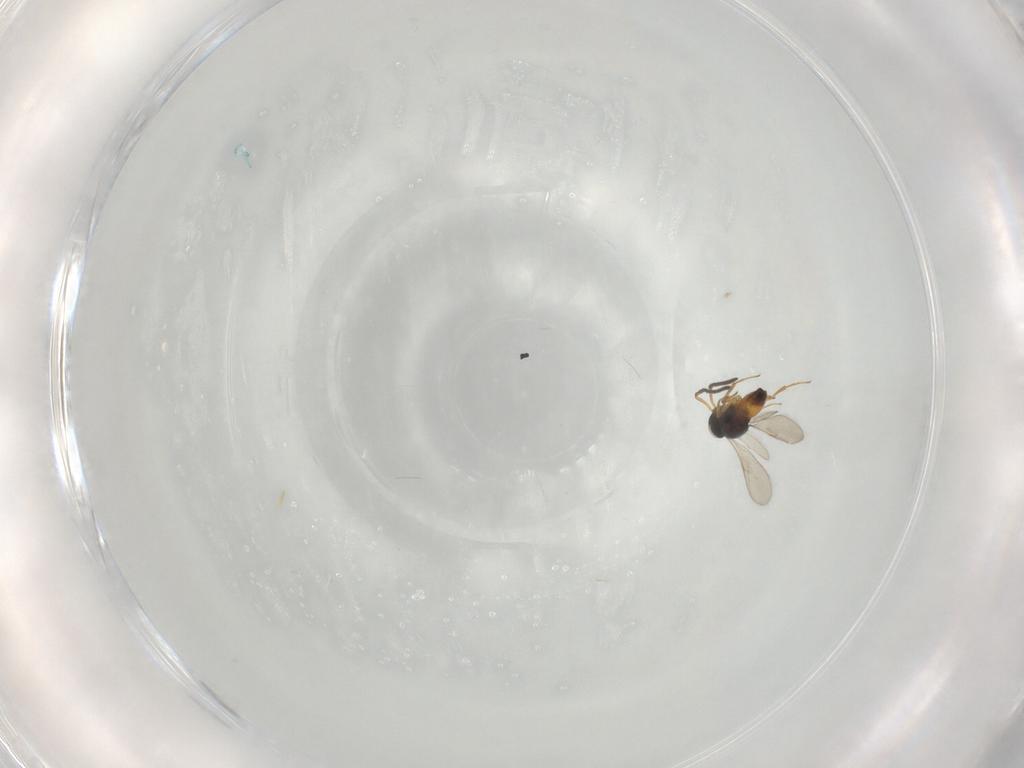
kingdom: Animalia
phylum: Arthropoda
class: Insecta
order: Hymenoptera
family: Scelionidae
